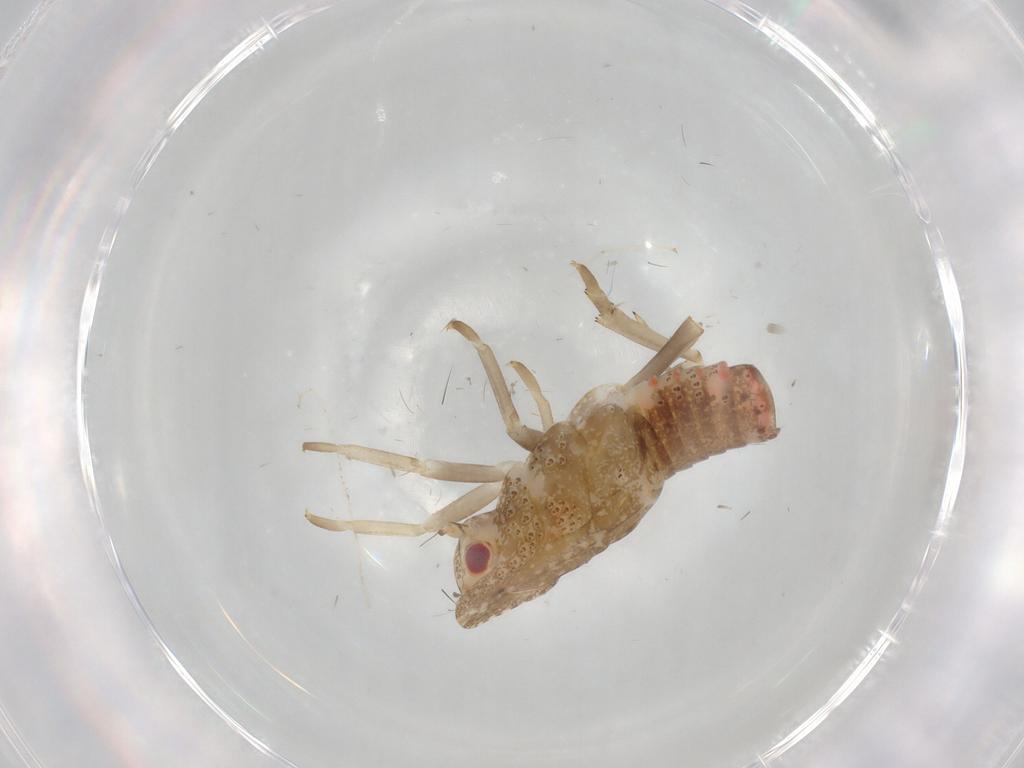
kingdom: Animalia
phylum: Arthropoda
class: Insecta
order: Hemiptera
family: Flatidae
